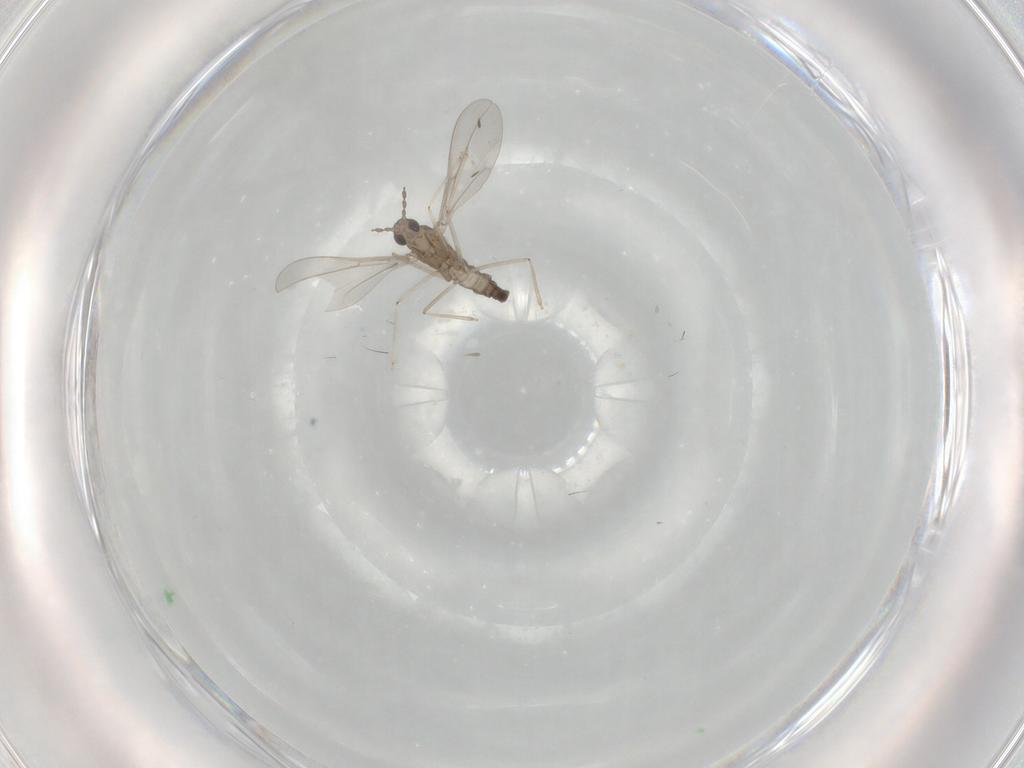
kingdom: Animalia
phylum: Arthropoda
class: Insecta
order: Diptera
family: Cecidomyiidae
